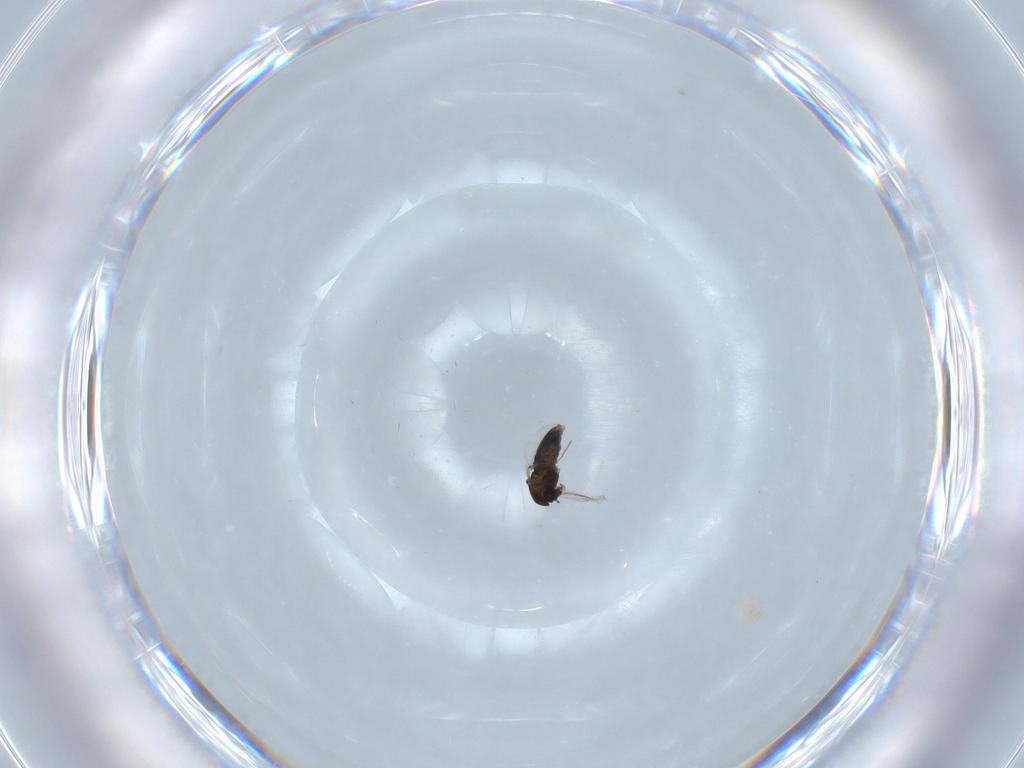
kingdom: Animalia
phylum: Arthropoda
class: Insecta
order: Diptera
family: Chironomidae
